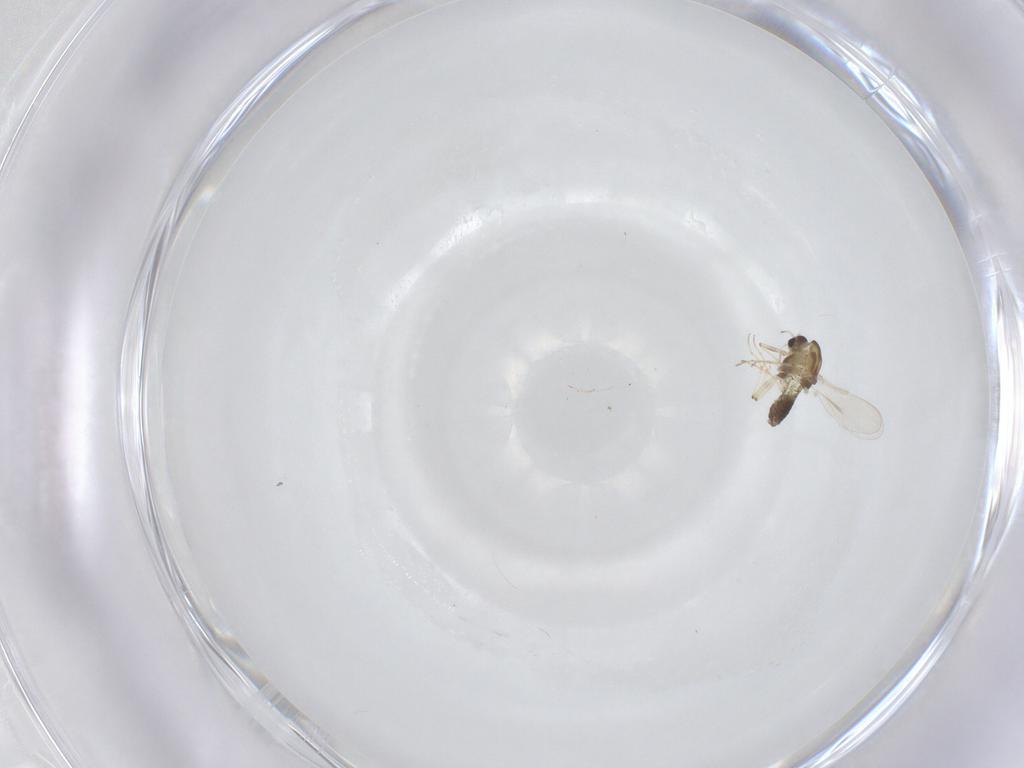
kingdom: Animalia
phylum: Arthropoda
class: Insecta
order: Diptera
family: Chironomidae
